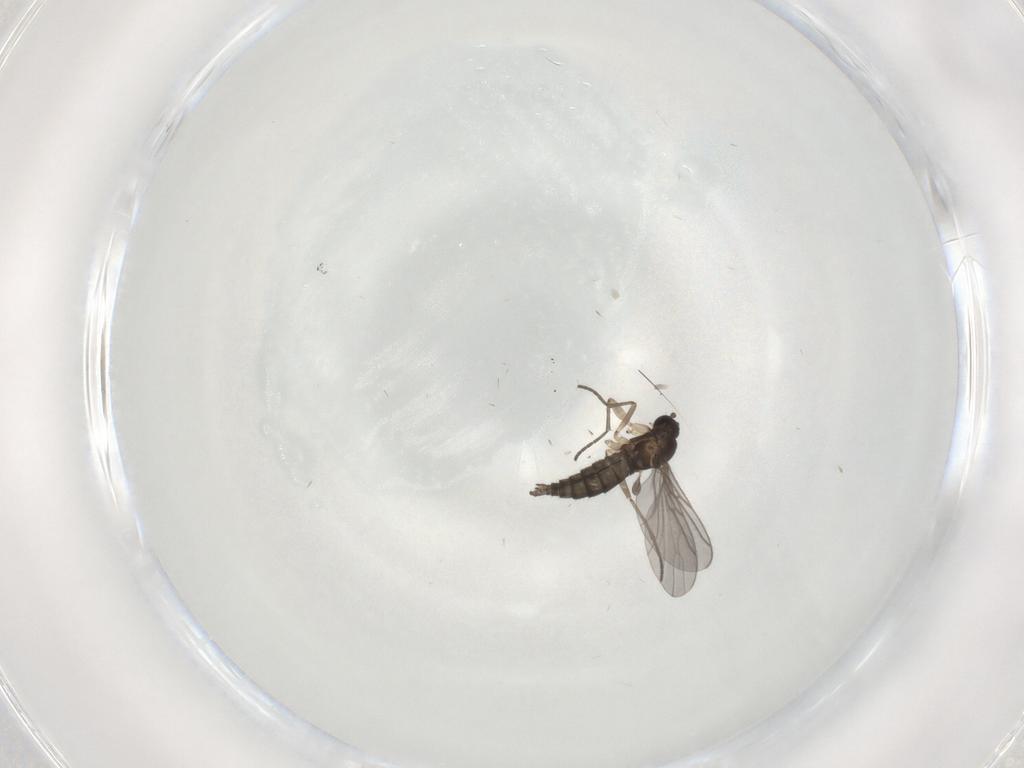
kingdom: Animalia
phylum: Arthropoda
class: Insecta
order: Diptera
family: Sciaridae
